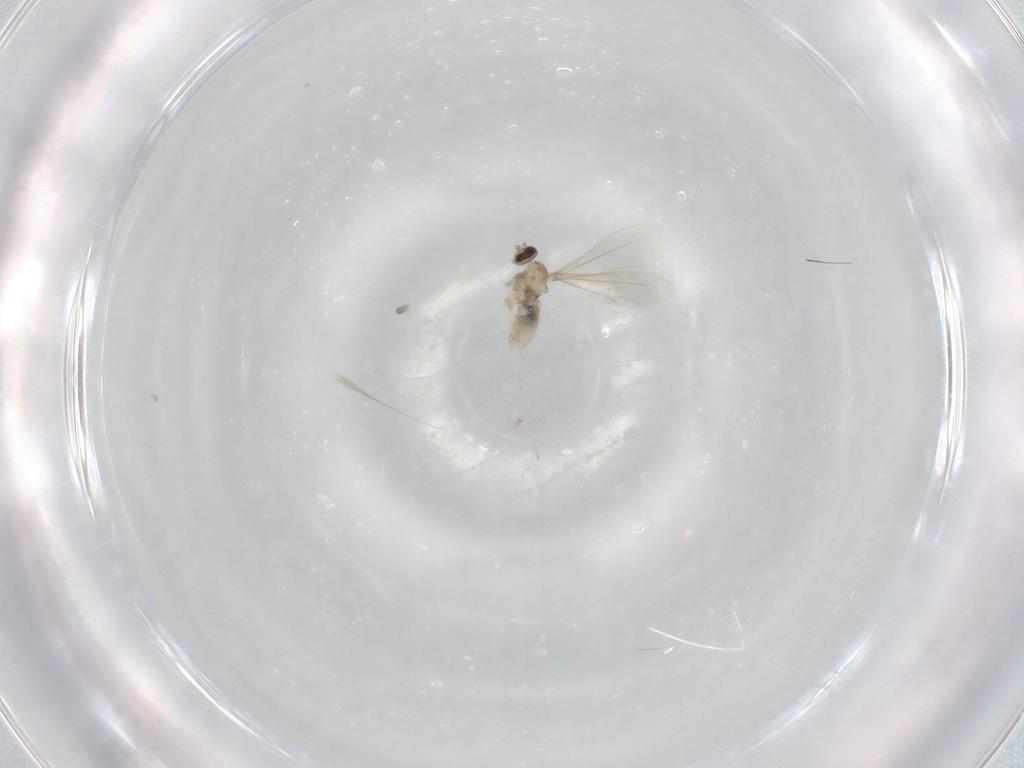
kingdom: Animalia
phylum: Arthropoda
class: Insecta
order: Diptera
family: Cecidomyiidae
